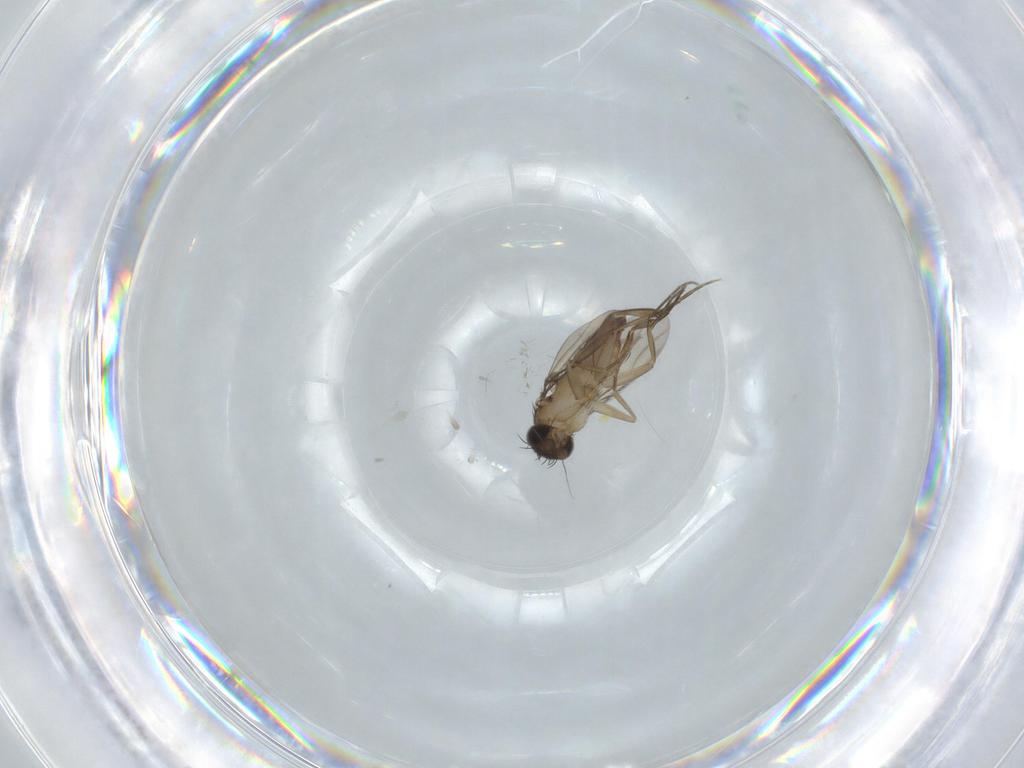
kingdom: Animalia
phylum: Arthropoda
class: Insecta
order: Diptera
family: Phoridae
